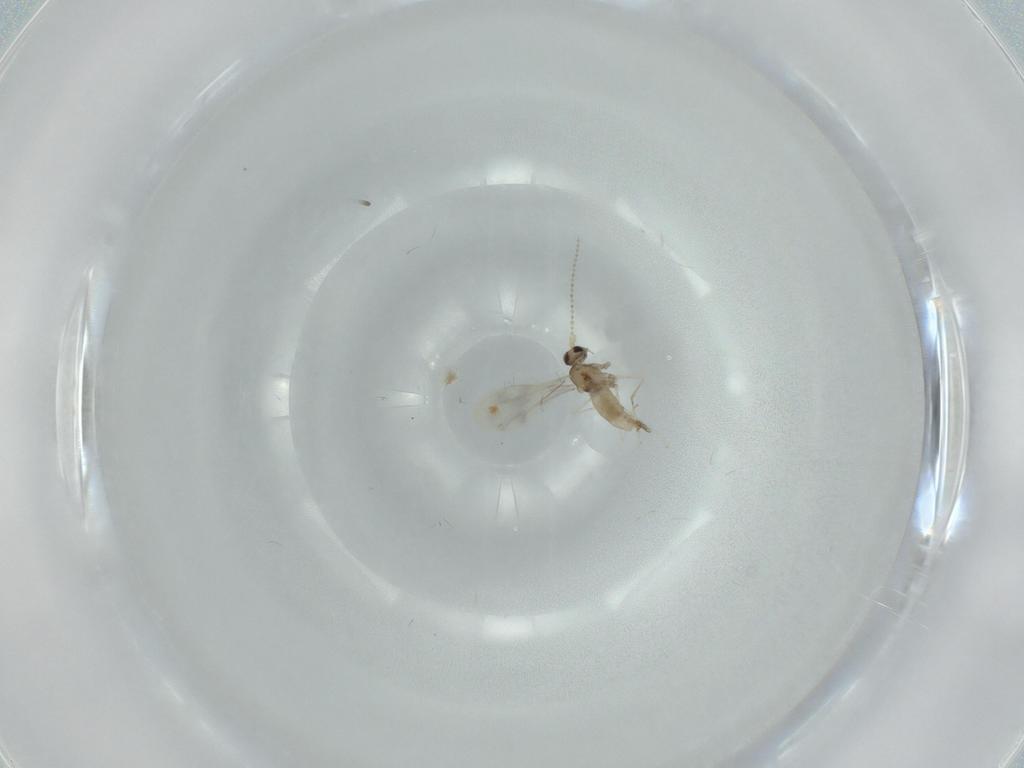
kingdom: Animalia
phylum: Arthropoda
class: Insecta
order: Diptera
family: Cecidomyiidae
